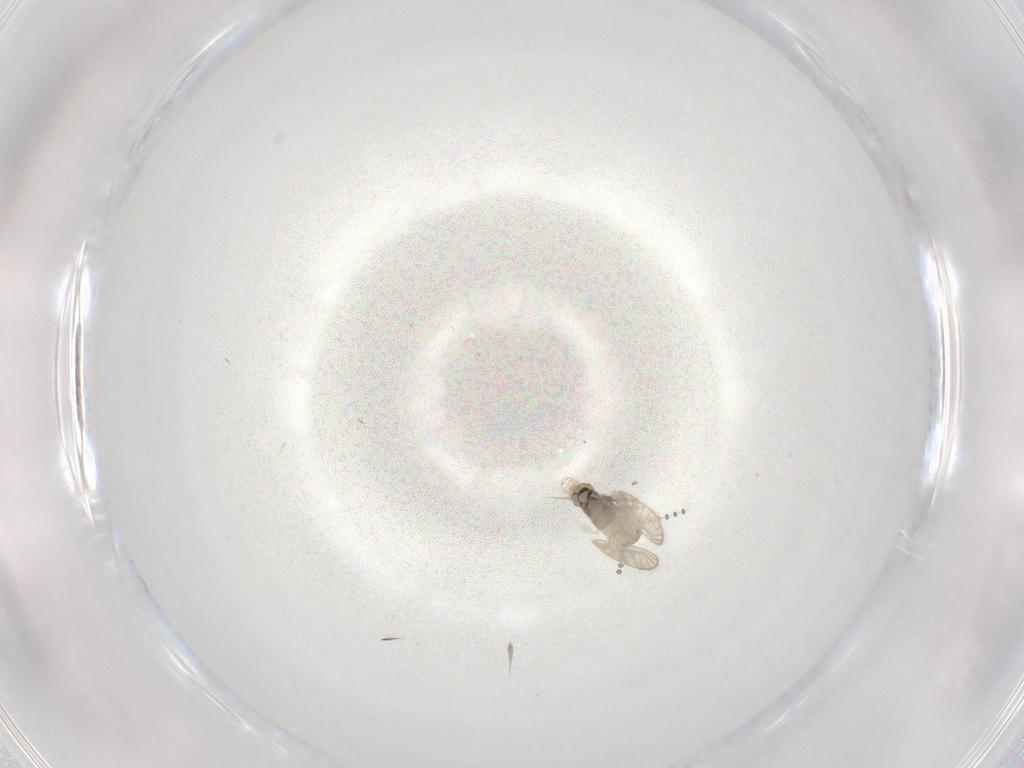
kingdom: Animalia
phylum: Arthropoda
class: Insecta
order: Diptera
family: Psychodidae
